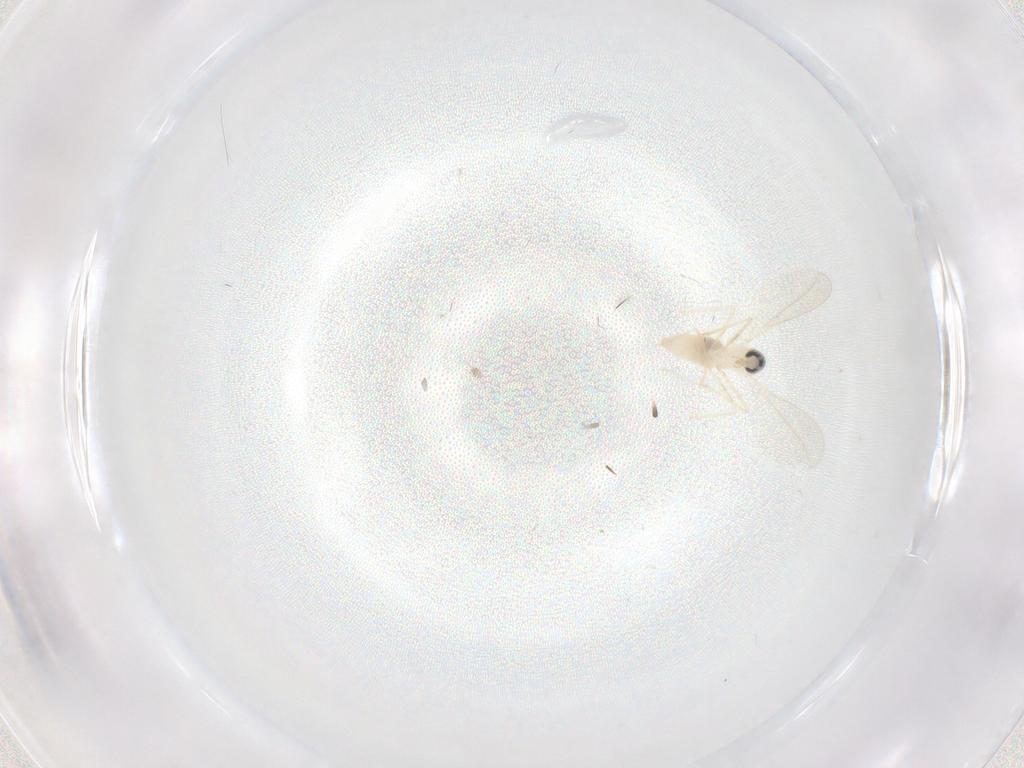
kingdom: Animalia
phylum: Arthropoda
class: Insecta
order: Diptera
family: Cecidomyiidae
